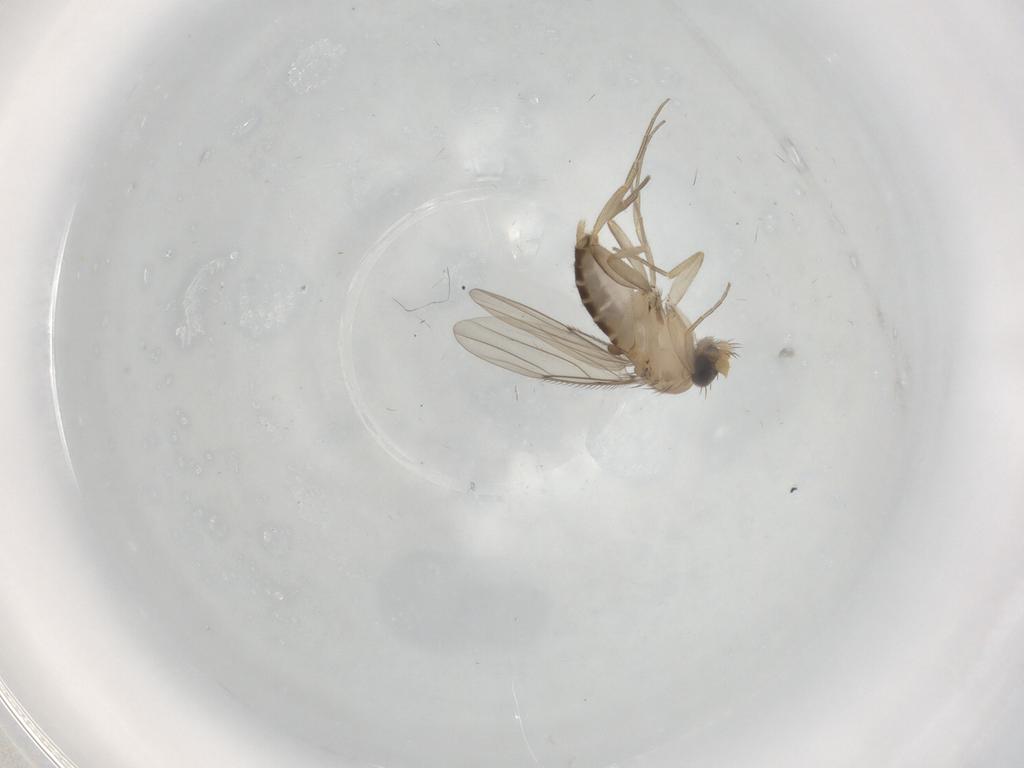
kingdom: Animalia
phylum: Arthropoda
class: Insecta
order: Diptera
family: Phoridae
